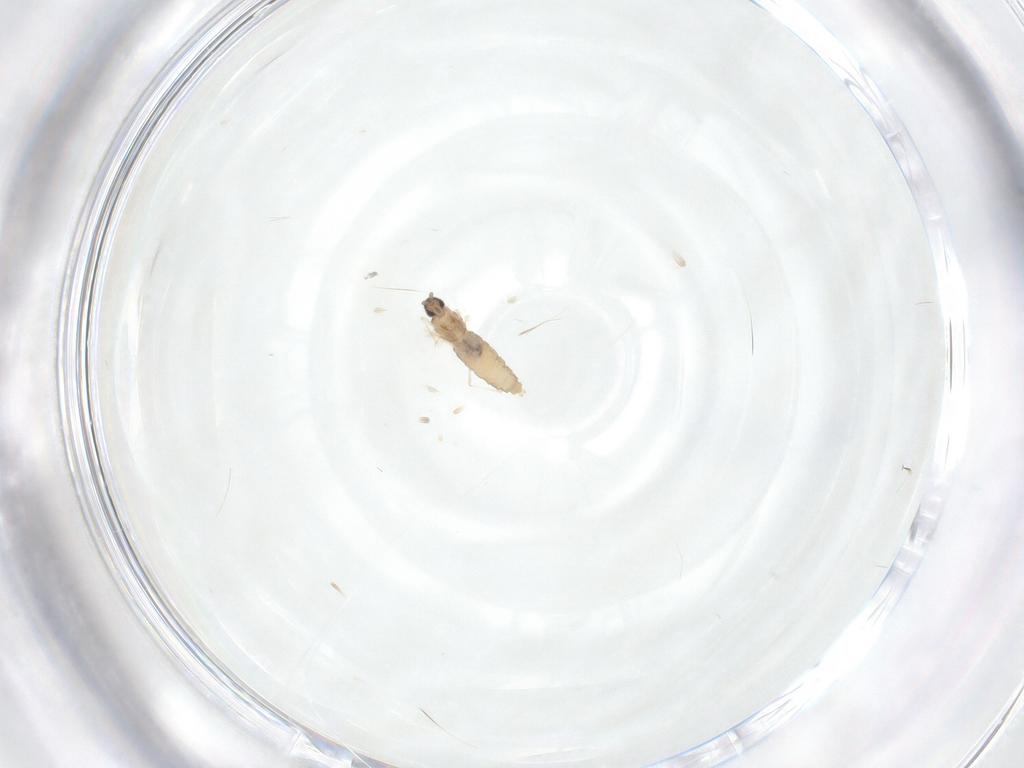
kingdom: Animalia
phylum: Arthropoda
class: Insecta
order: Diptera
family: Cecidomyiidae
